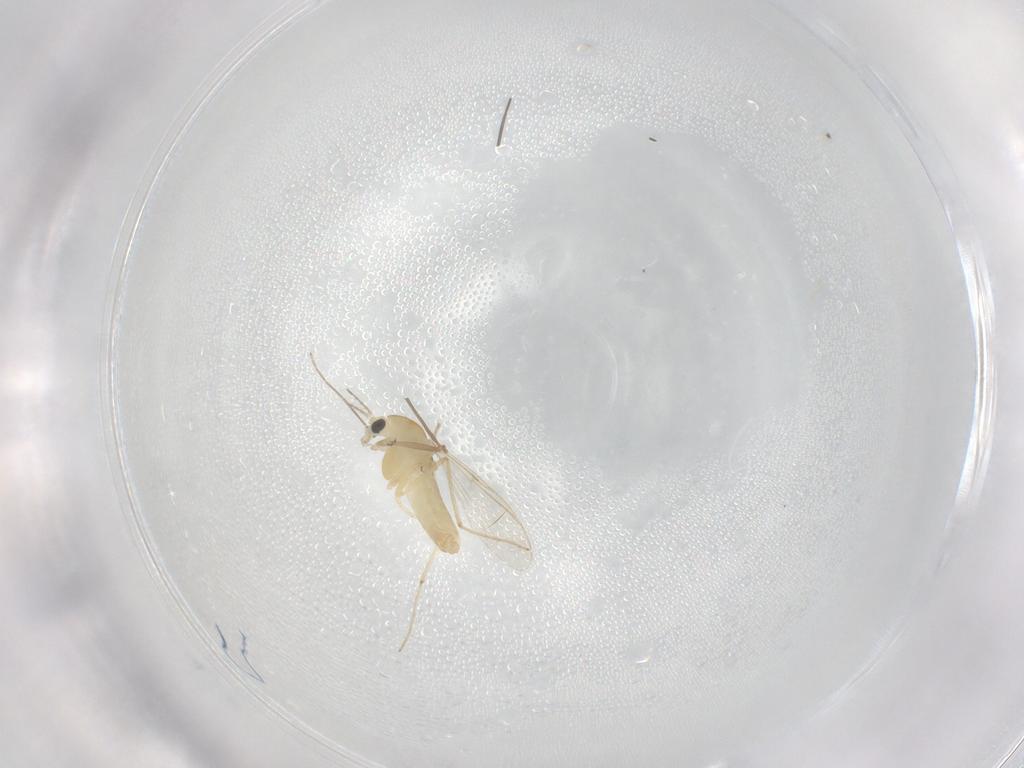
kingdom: Animalia
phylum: Arthropoda
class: Insecta
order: Diptera
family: Chironomidae
